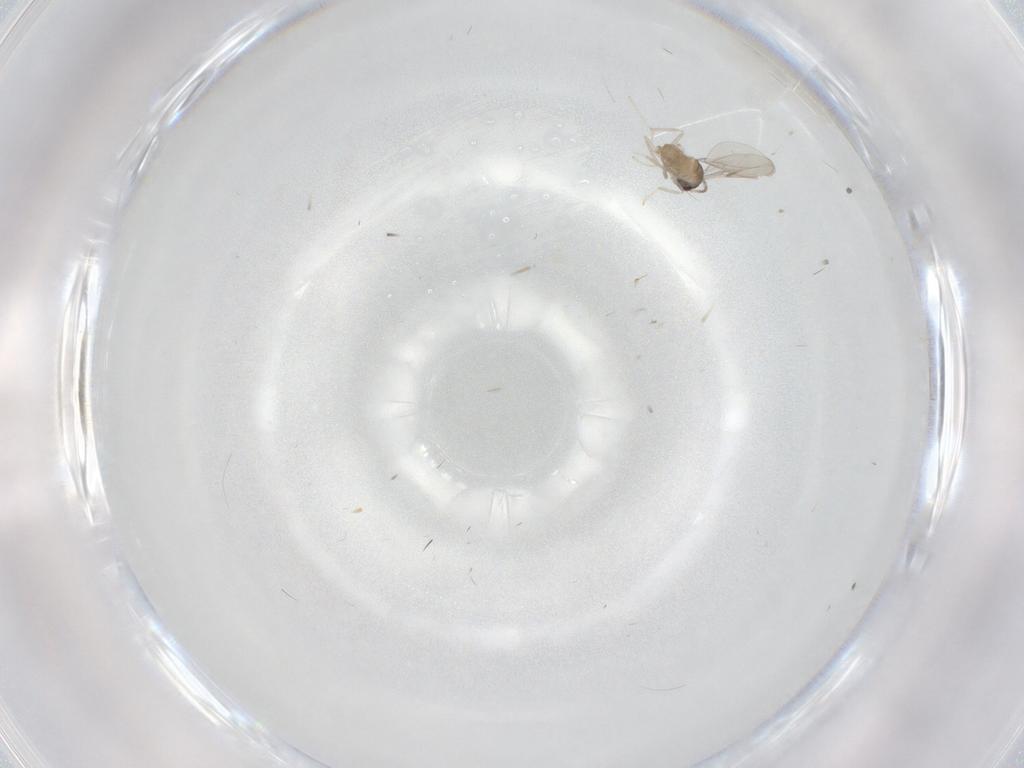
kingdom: Animalia
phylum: Arthropoda
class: Insecta
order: Diptera
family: Cecidomyiidae
